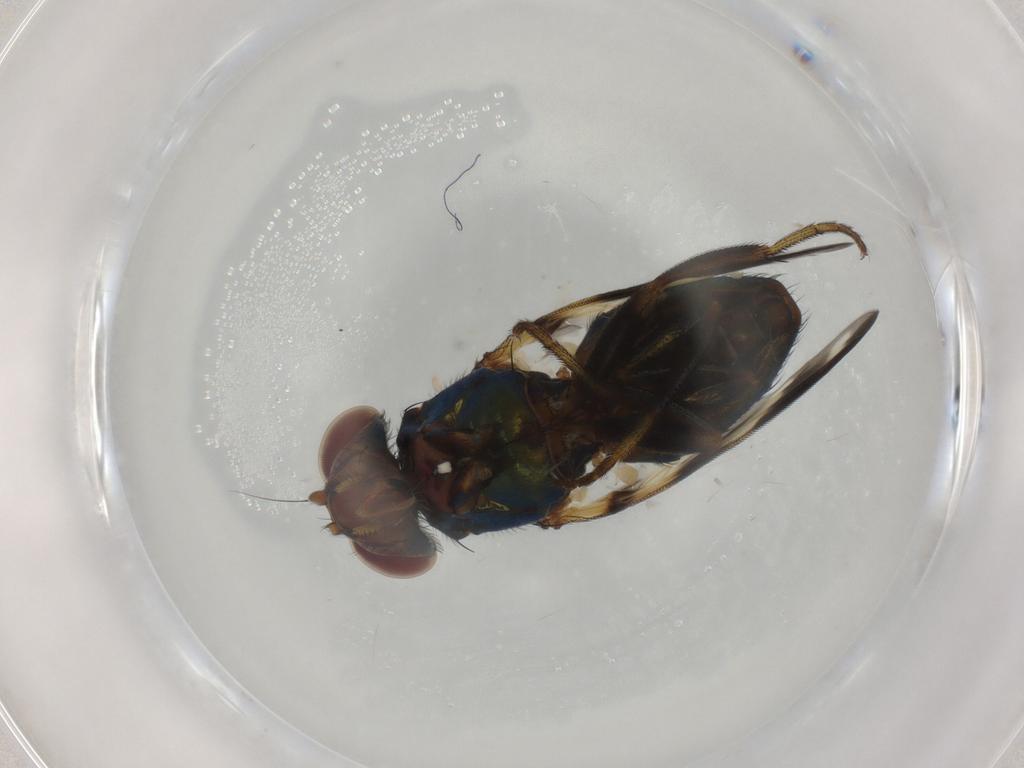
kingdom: Animalia
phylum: Arthropoda
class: Insecta
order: Diptera
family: Ulidiidae
